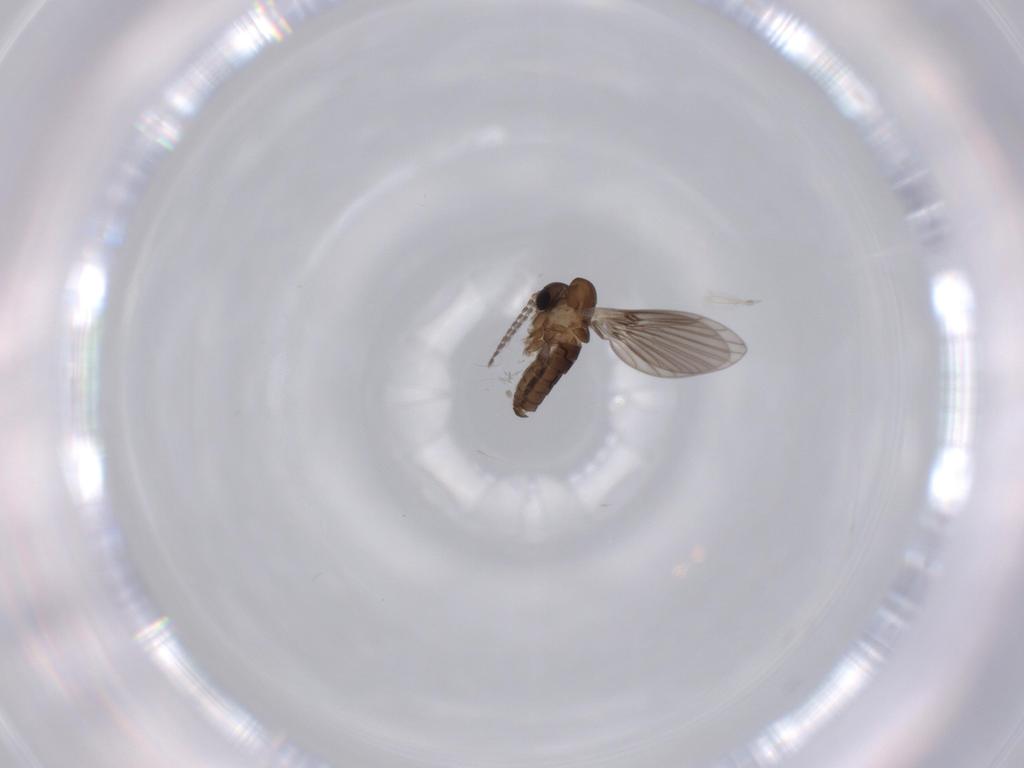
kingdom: Animalia
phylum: Arthropoda
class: Insecta
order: Diptera
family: Psychodidae
